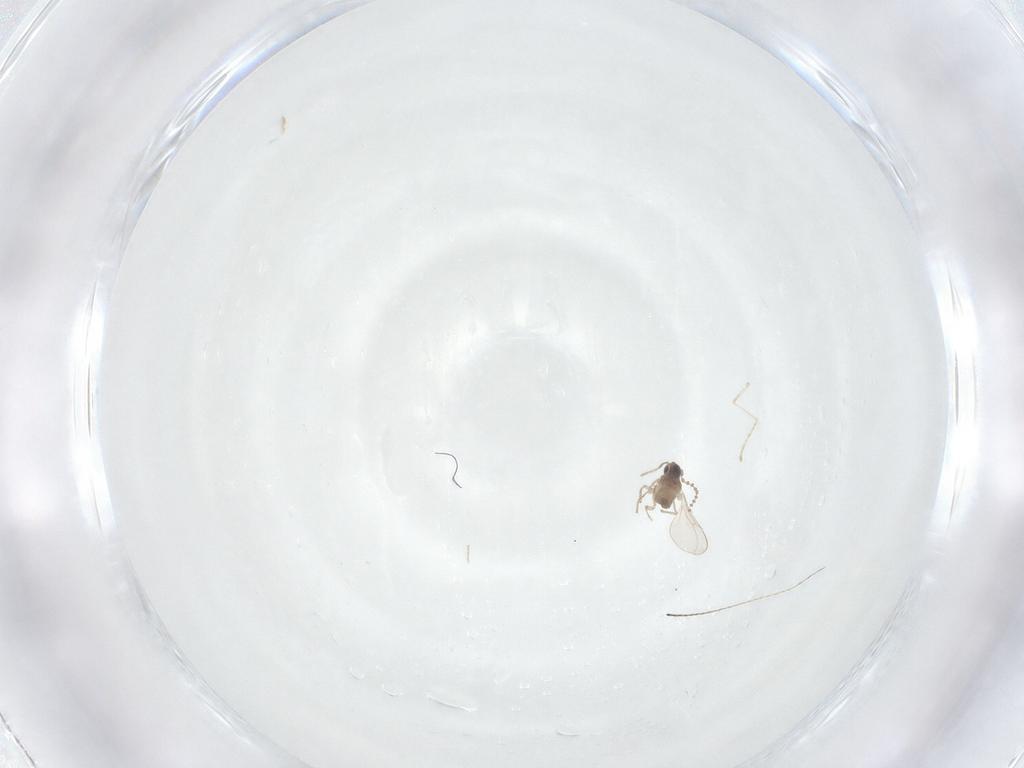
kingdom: Animalia
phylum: Arthropoda
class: Insecta
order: Diptera
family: Cecidomyiidae
